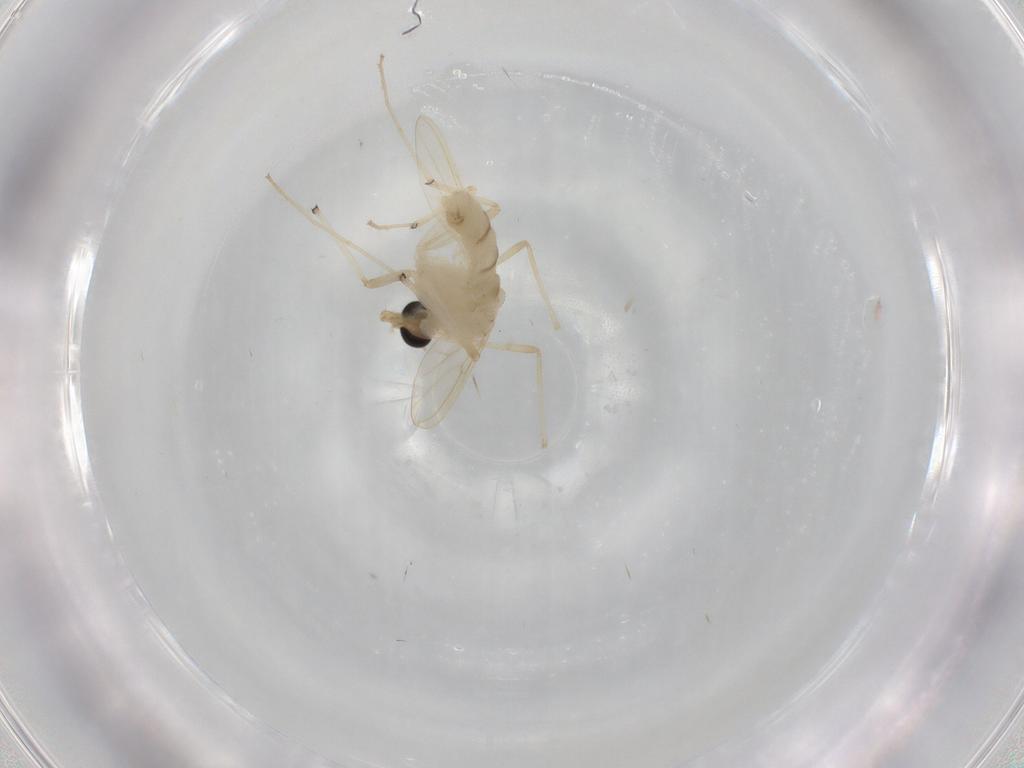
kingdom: Animalia
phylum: Arthropoda
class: Insecta
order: Diptera
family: Chironomidae
